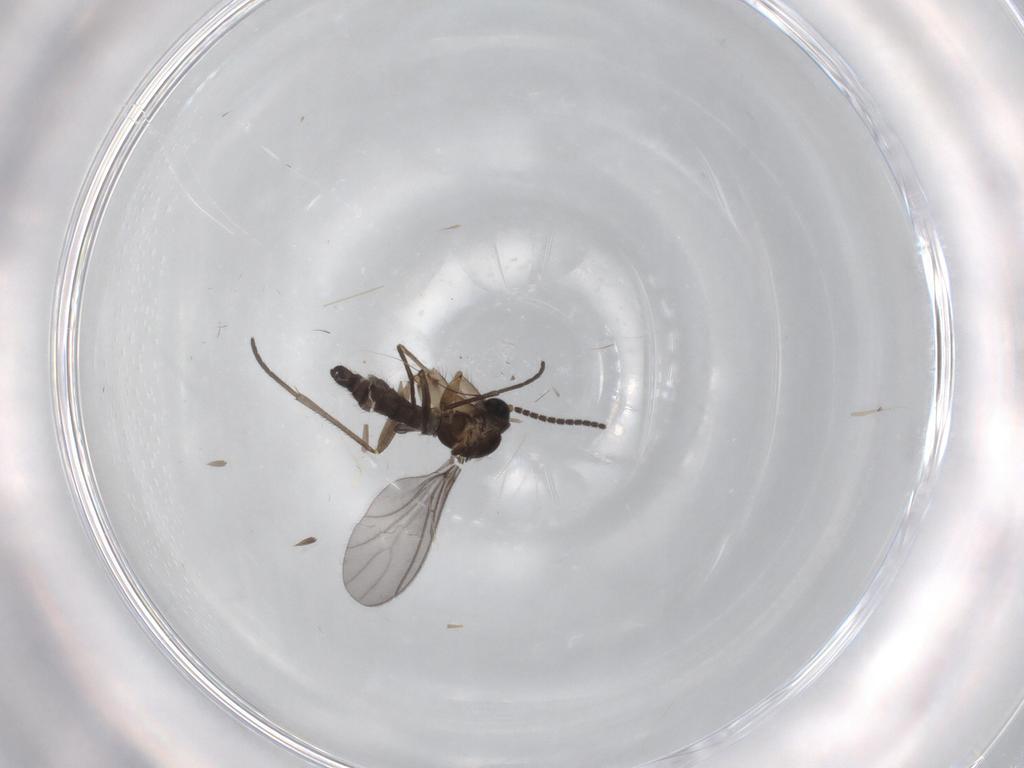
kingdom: Animalia
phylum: Arthropoda
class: Insecta
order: Diptera
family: Sciaridae
